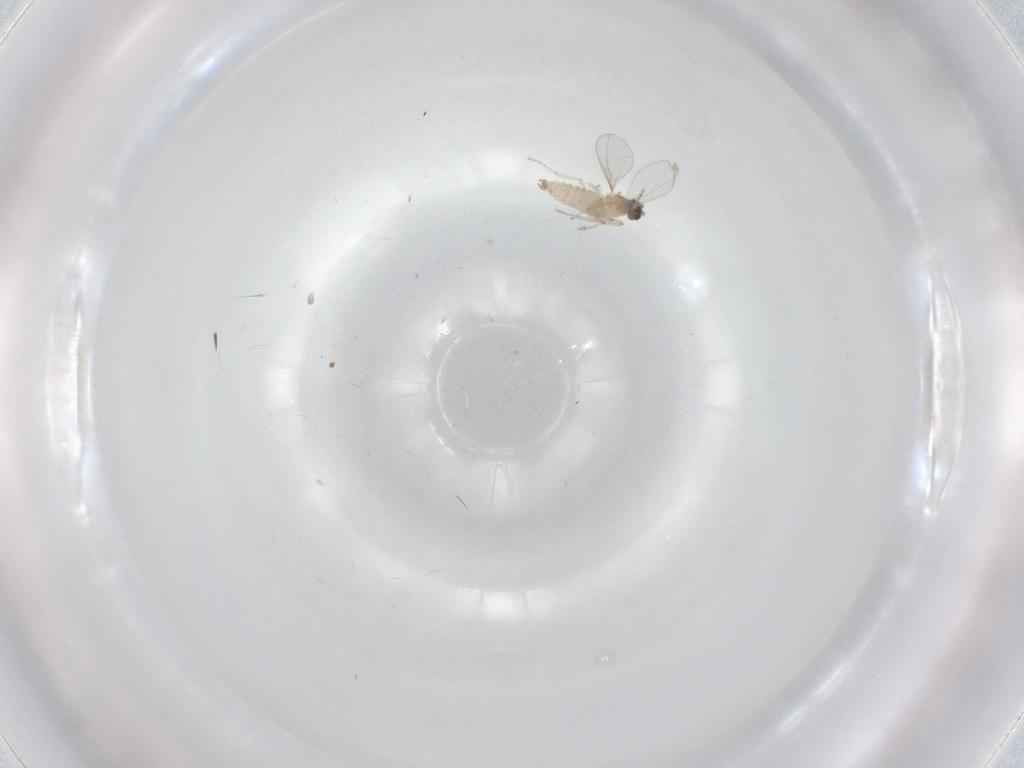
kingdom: Animalia
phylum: Arthropoda
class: Insecta
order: Diptera
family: Cecidomyiidae
